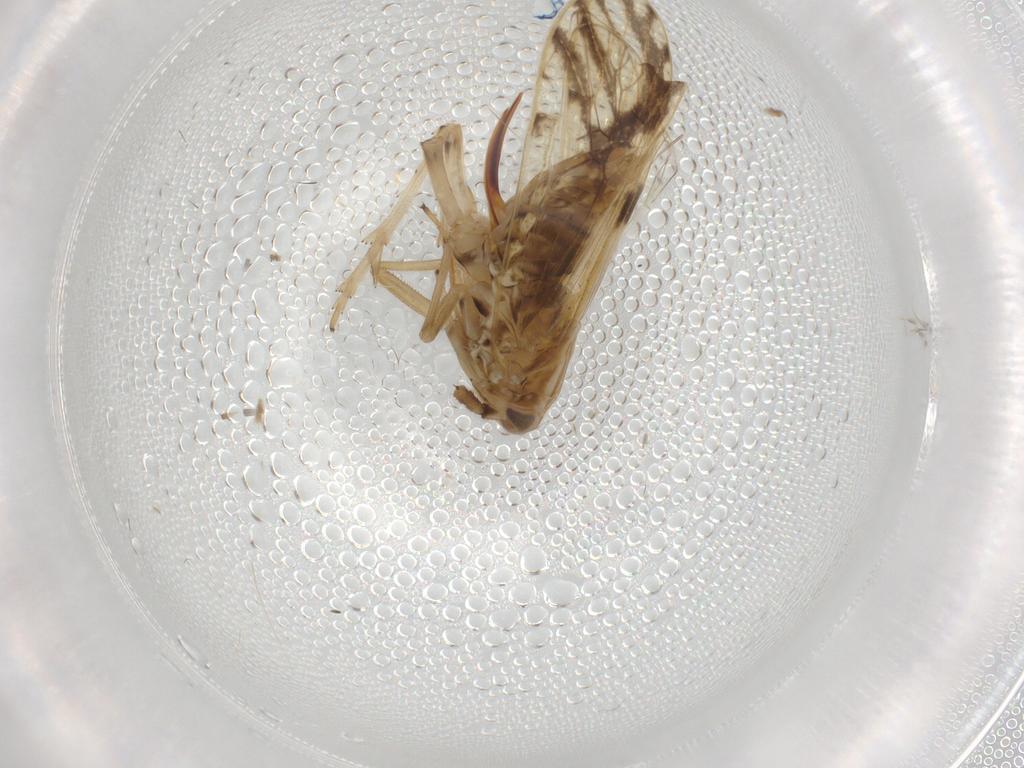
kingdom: Animalia
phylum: Arthropoda
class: Insecta
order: Hemiptera
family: Delphacidae
